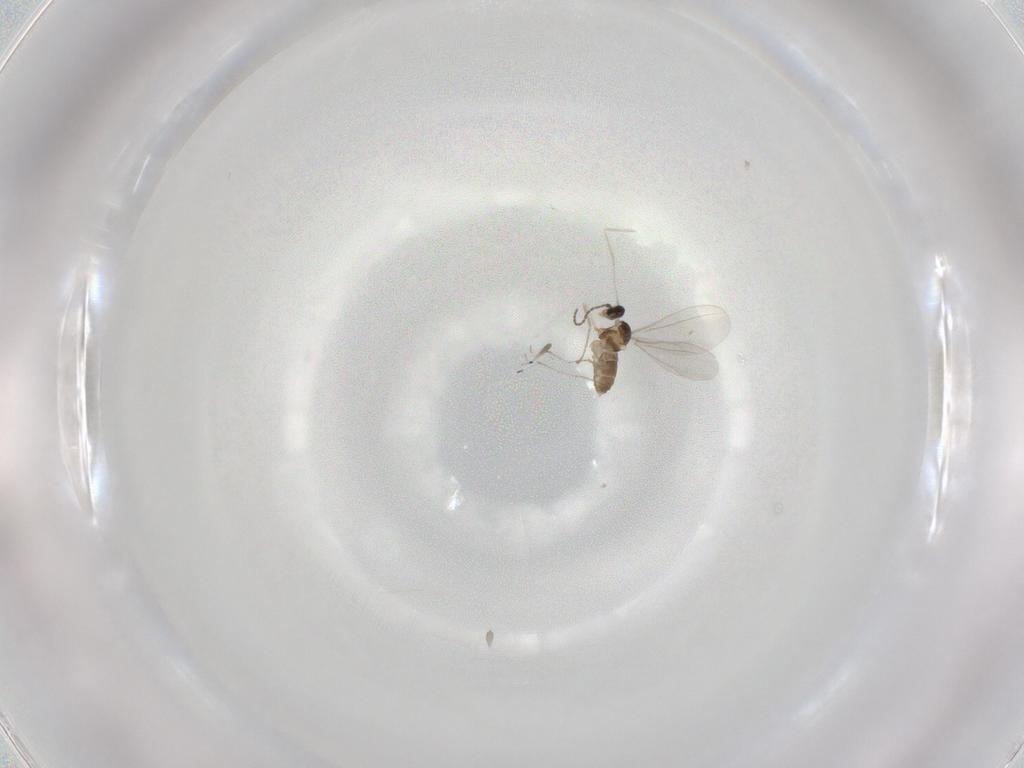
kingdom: Animalia
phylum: Arthropoda
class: Insecta
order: Diptera
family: Cecidomyiidae
